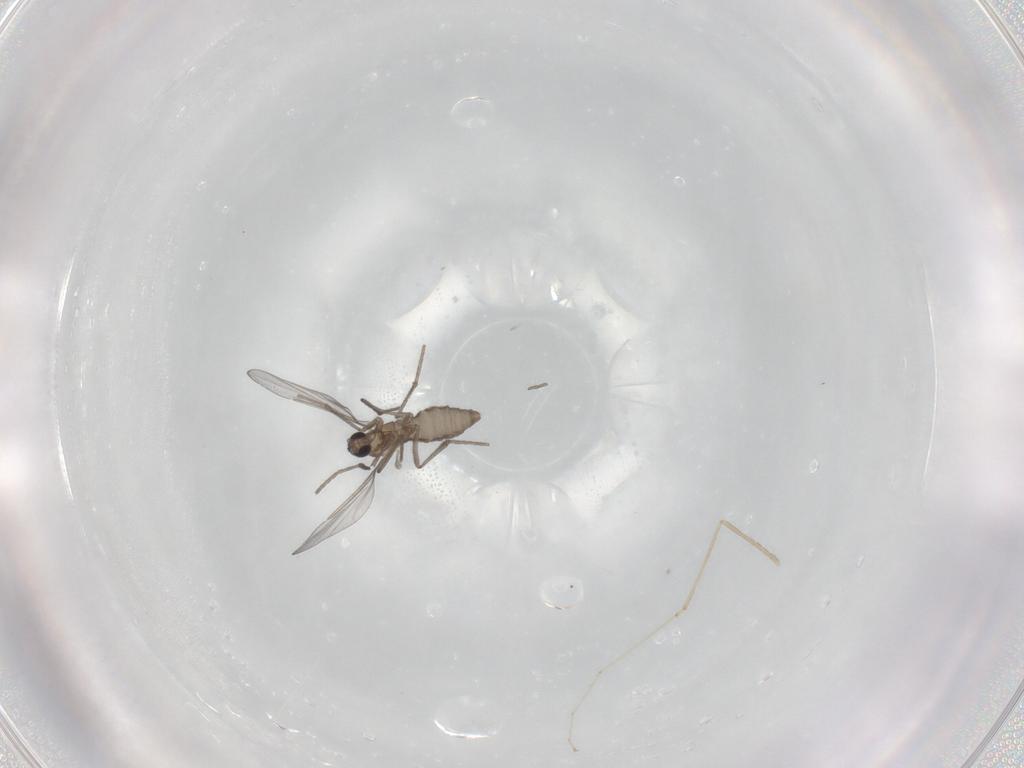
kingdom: Animalia
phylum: Arthropoda
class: Insecta
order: Diptera
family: Cecidomyiidae
